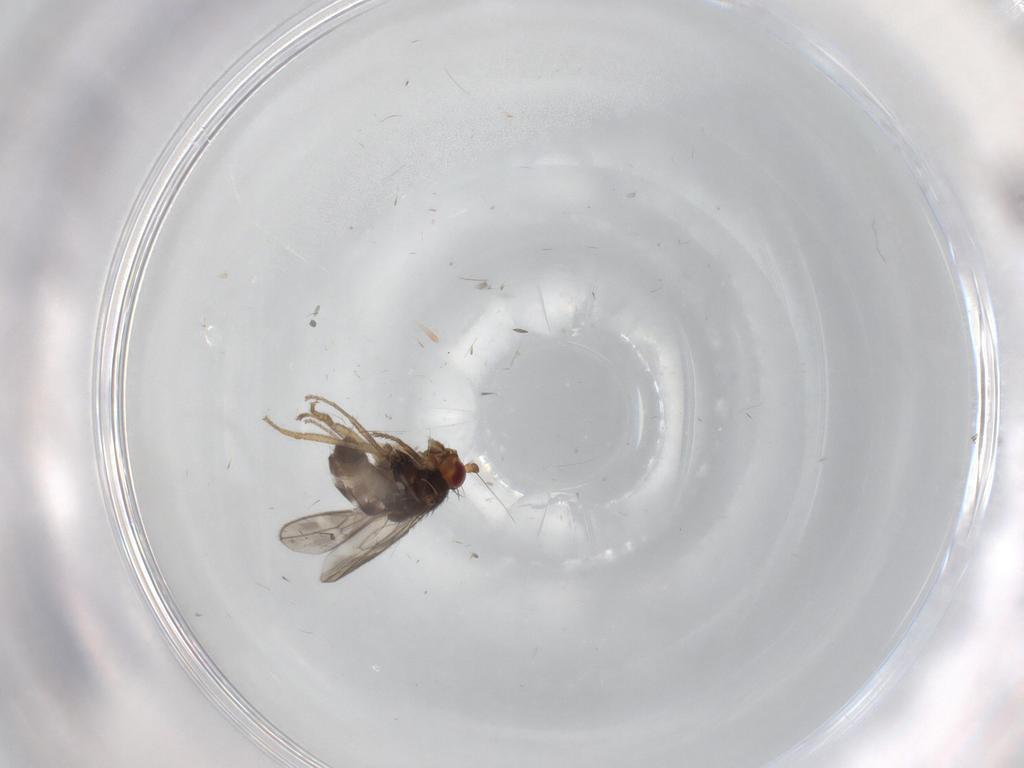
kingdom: Animalia
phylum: Arthropoda
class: Insecta
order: Diptera
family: Sphaeroceridae
